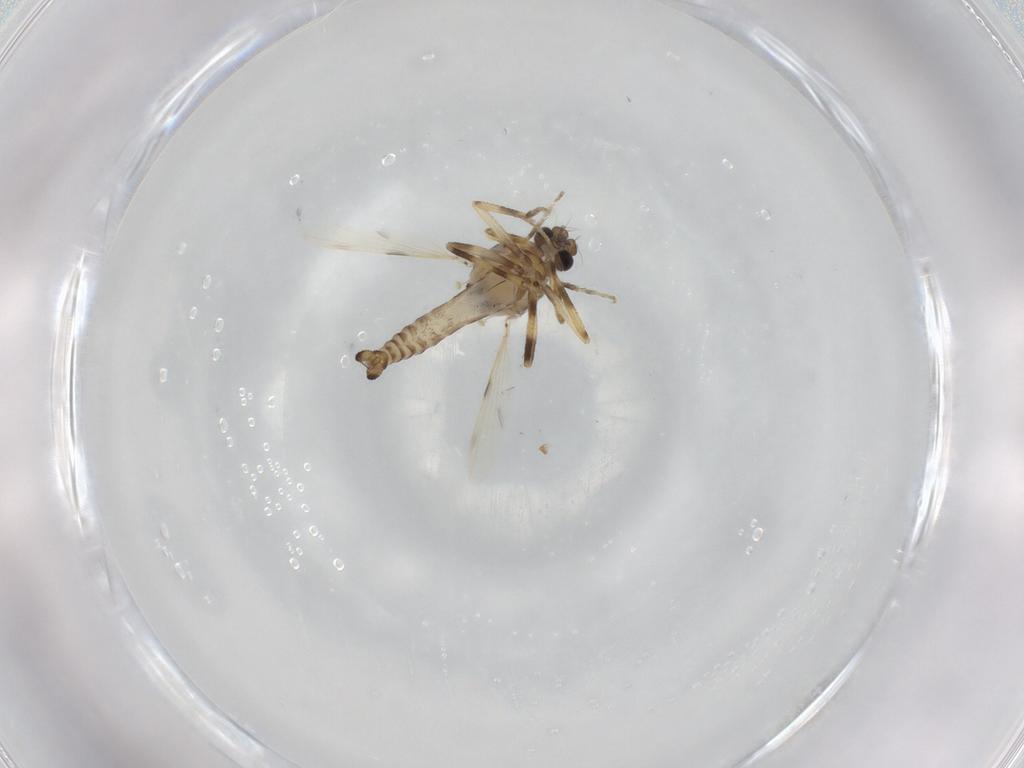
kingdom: Animalia
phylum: Arthropoda
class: Insecta
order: Diptera
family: Ceratopogonidae
